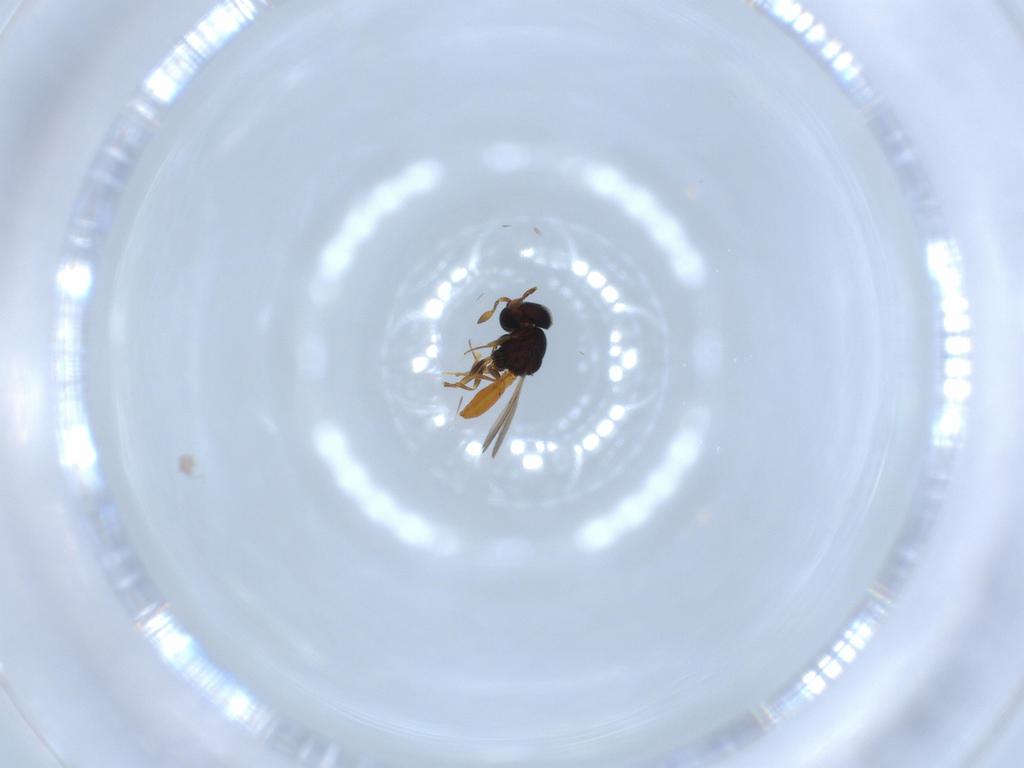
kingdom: Animalia
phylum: Arthropoda
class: Insecta
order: Hymenoptera
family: Scelionidae
